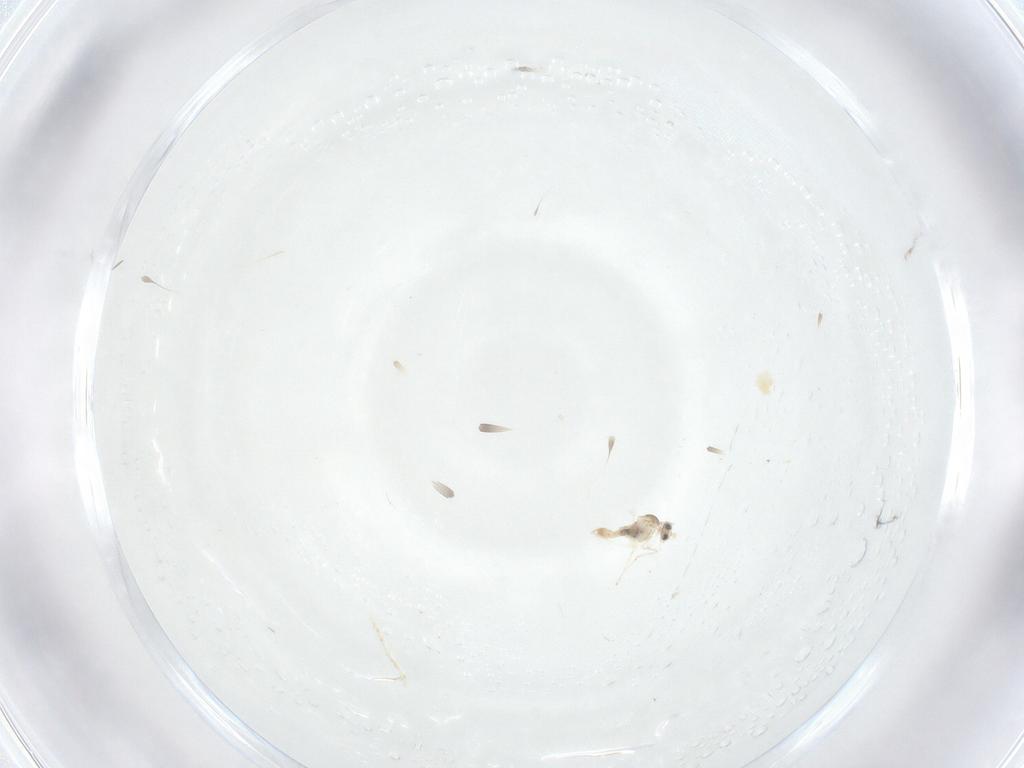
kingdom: Animalia
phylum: Arthropoda
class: Insecta
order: Diptera
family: Cecidomyiidae
